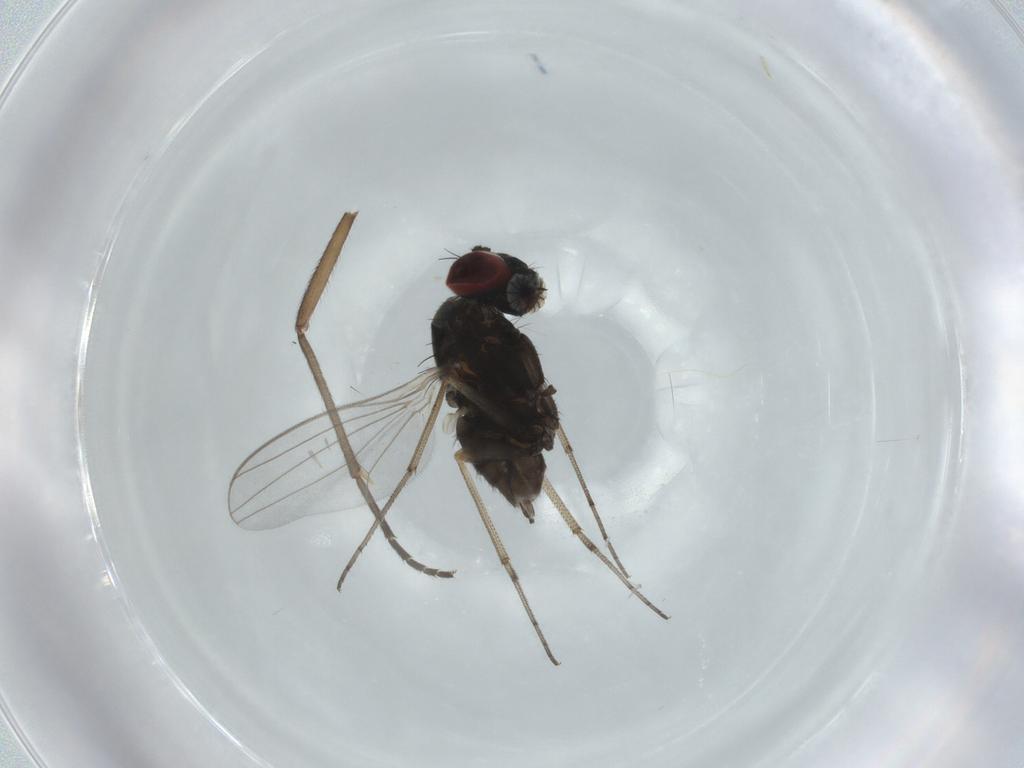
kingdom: Animalia
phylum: Arthropoda
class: Insecta
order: Diptera
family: Dolichopodidae
